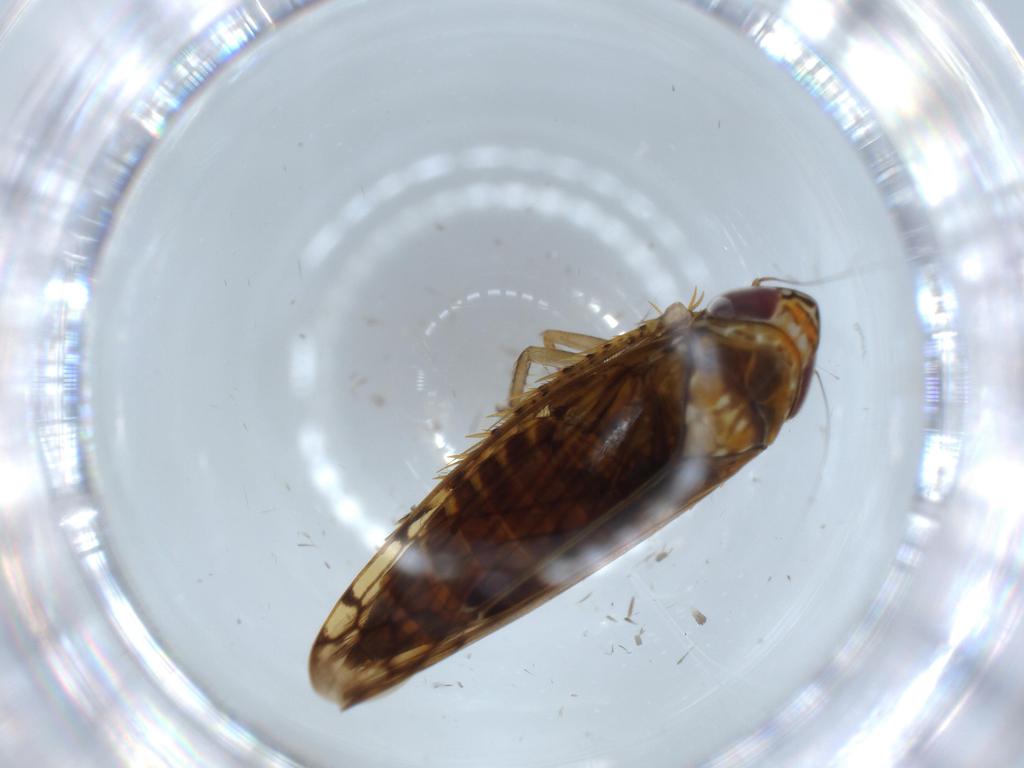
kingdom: Animalia
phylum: Arthropoda
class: Insecta
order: Hemiptera
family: Cicadellidae
